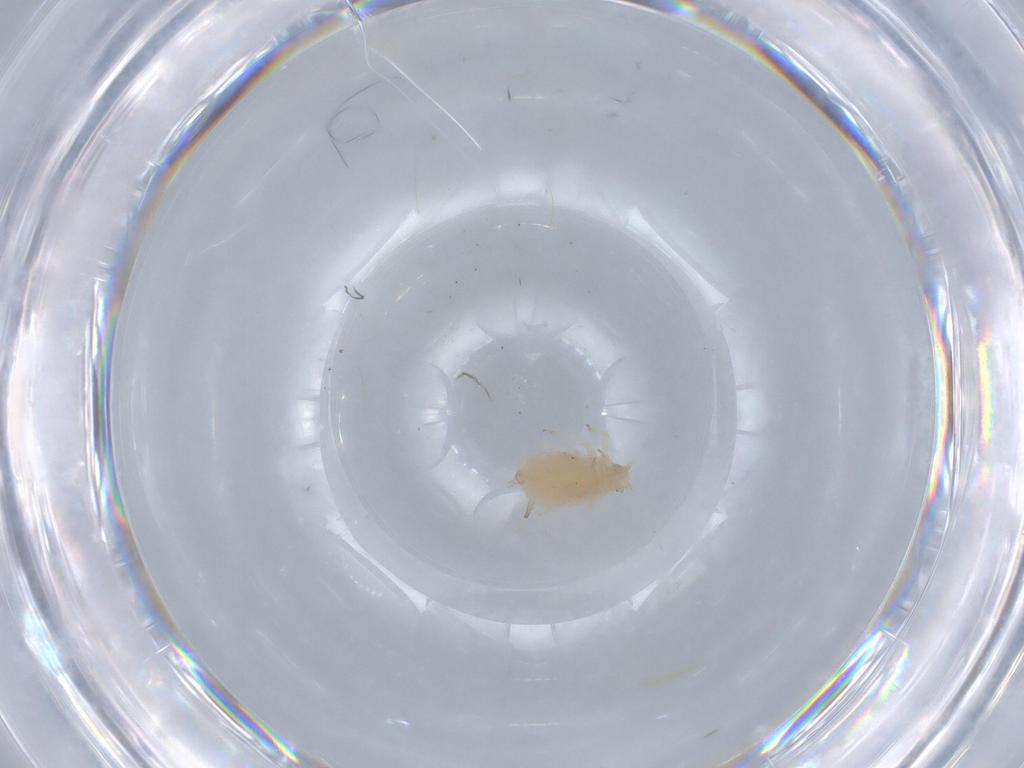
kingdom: Animalia
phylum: Arthropoda
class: Insecta
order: Hemiptera
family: Aphididae
